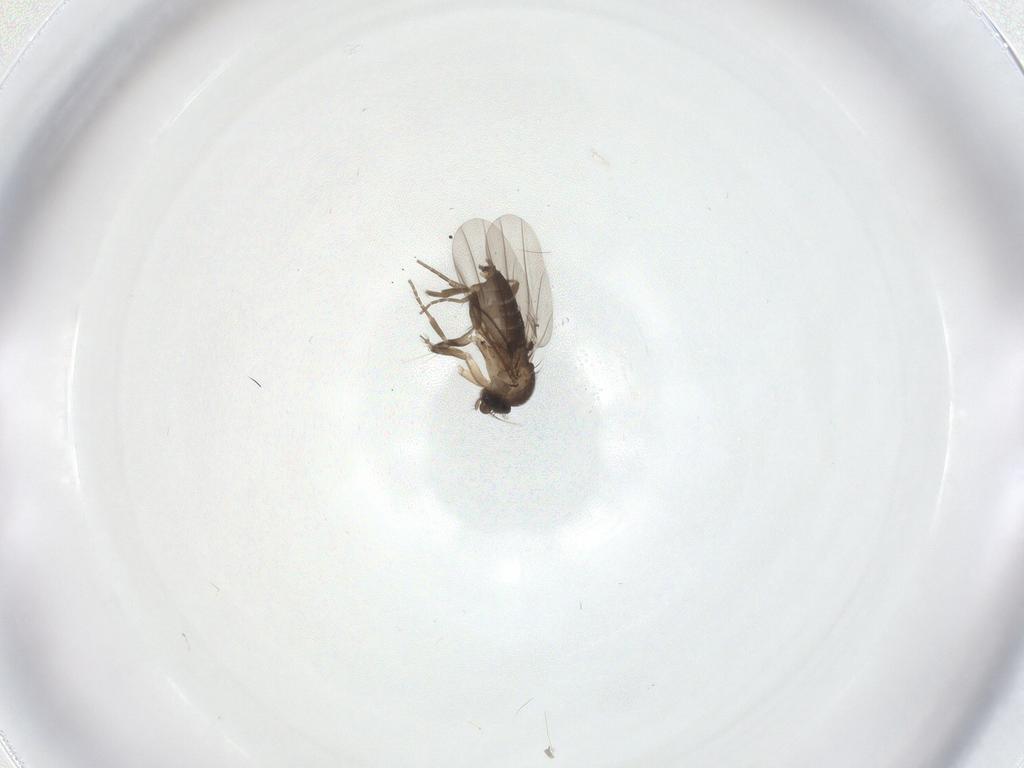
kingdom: Animalia
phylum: Arthropoda
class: Insecta
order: Diptera
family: Phoridae
